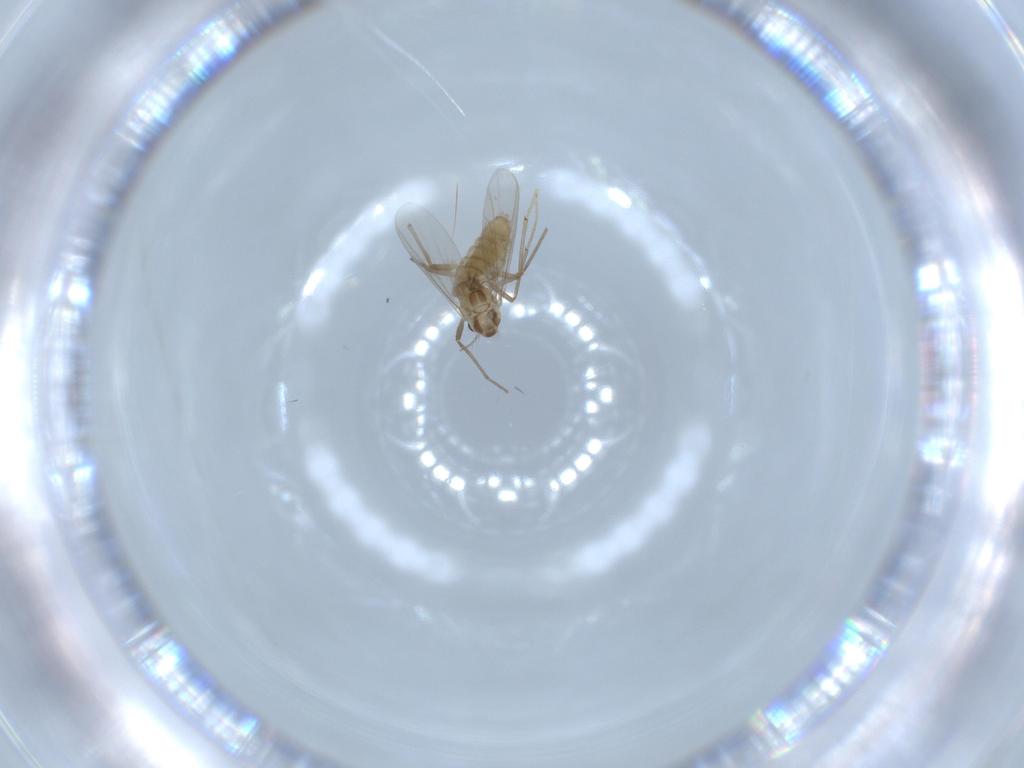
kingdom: Animalia
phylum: Arthropoda
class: Insecta
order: Diptera
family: Chironomidae
